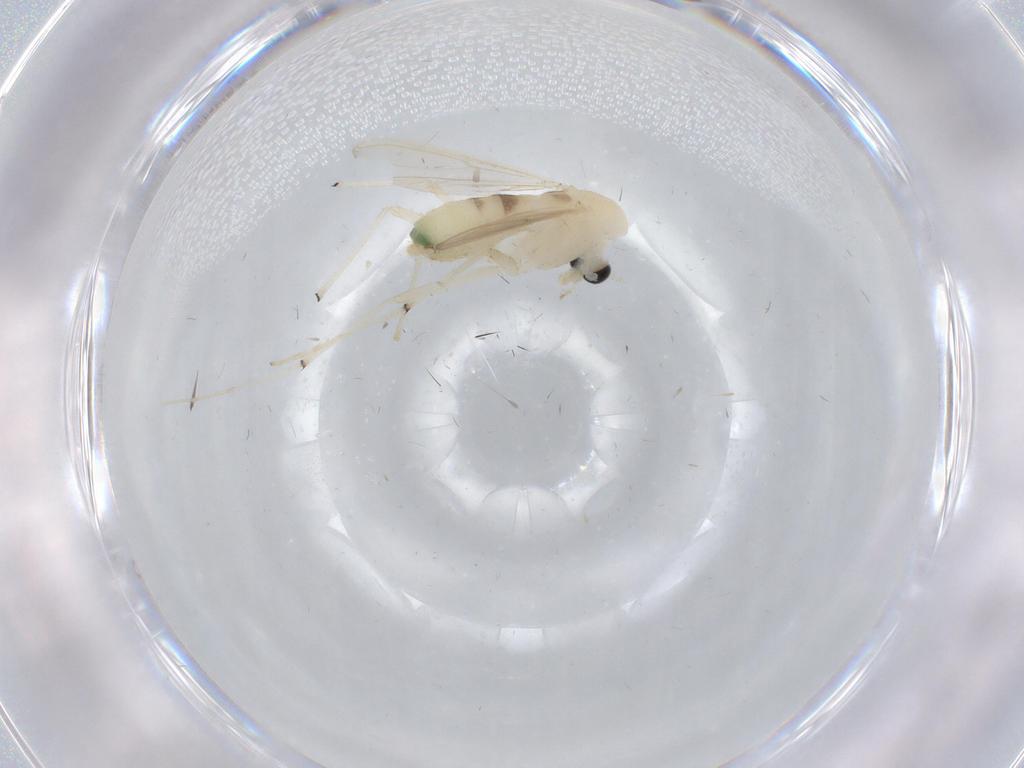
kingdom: Animalia
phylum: Arthropoda
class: Insecta
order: Diptera
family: Chironomidae
